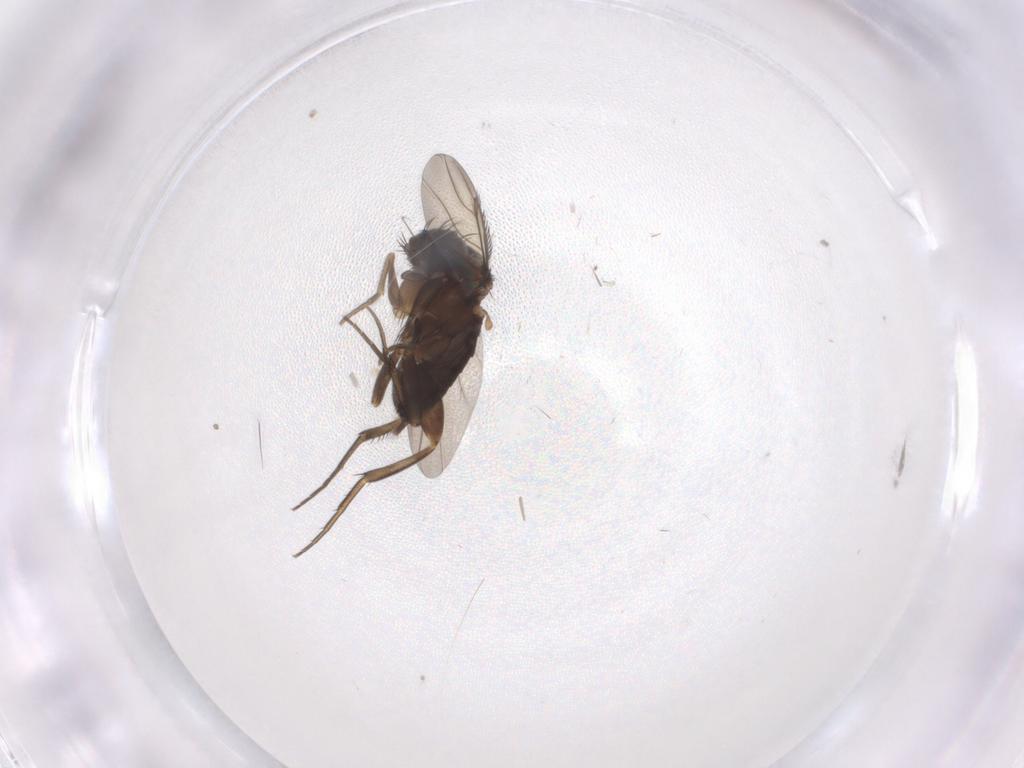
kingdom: Animalia
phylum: Arthropoda
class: Insecta
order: Diptera
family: Phoridae
